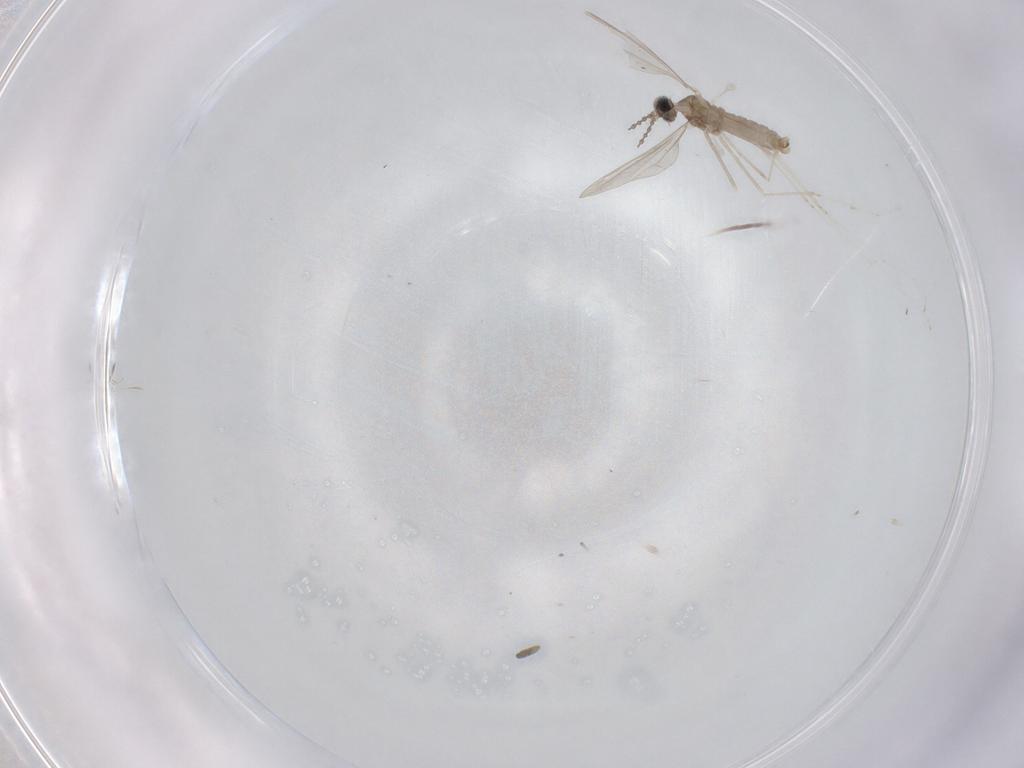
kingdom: Animalia
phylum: Arthropoda
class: Insecta
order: Diptera
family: Cecidomyiidae
